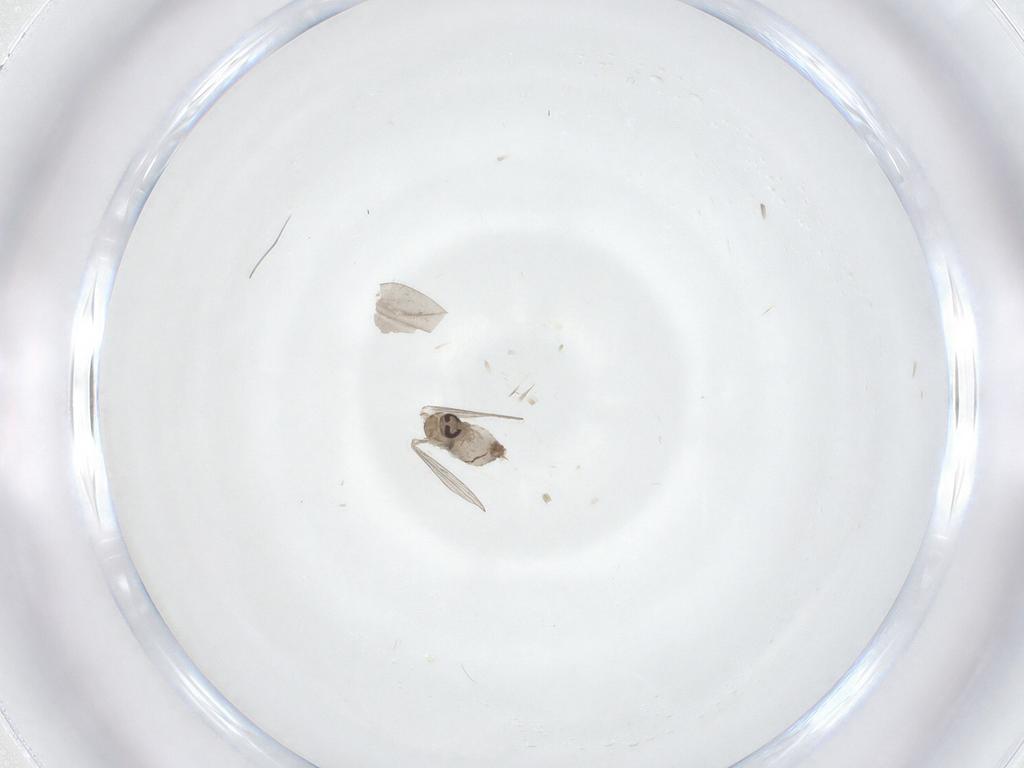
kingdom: Animalia
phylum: Arthropoda
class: Insecta
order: Diptera
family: Psychodidae
